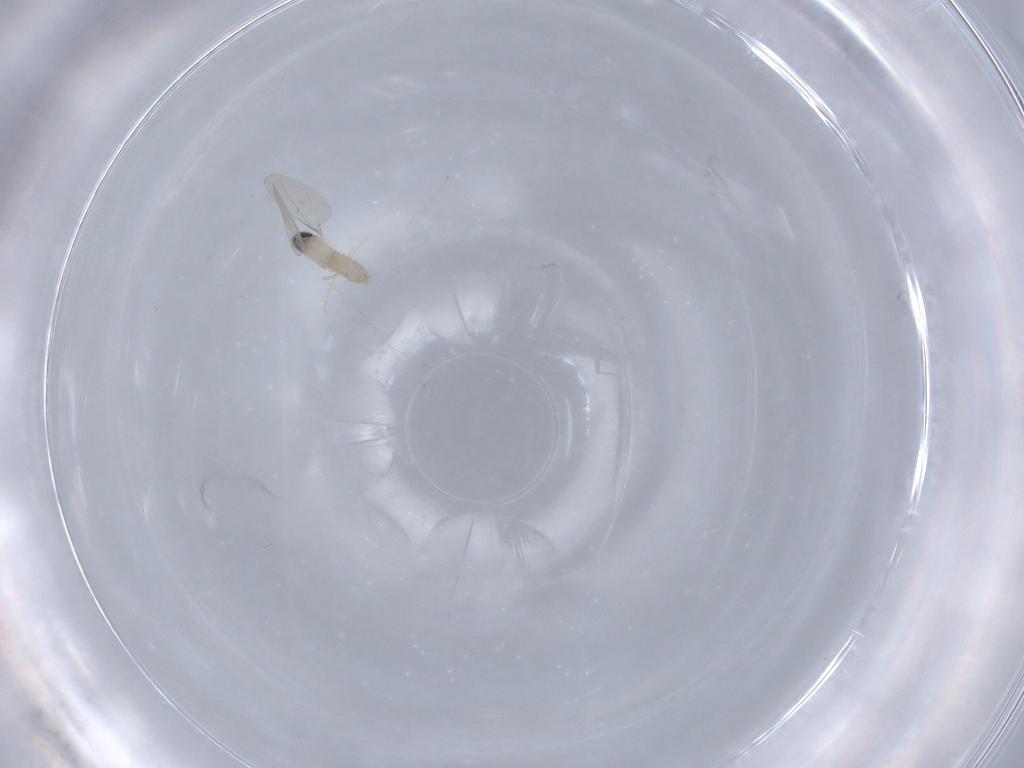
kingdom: Animalia
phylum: Arthropoda
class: Insecta
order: Diptera
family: Cecidomyiidae
